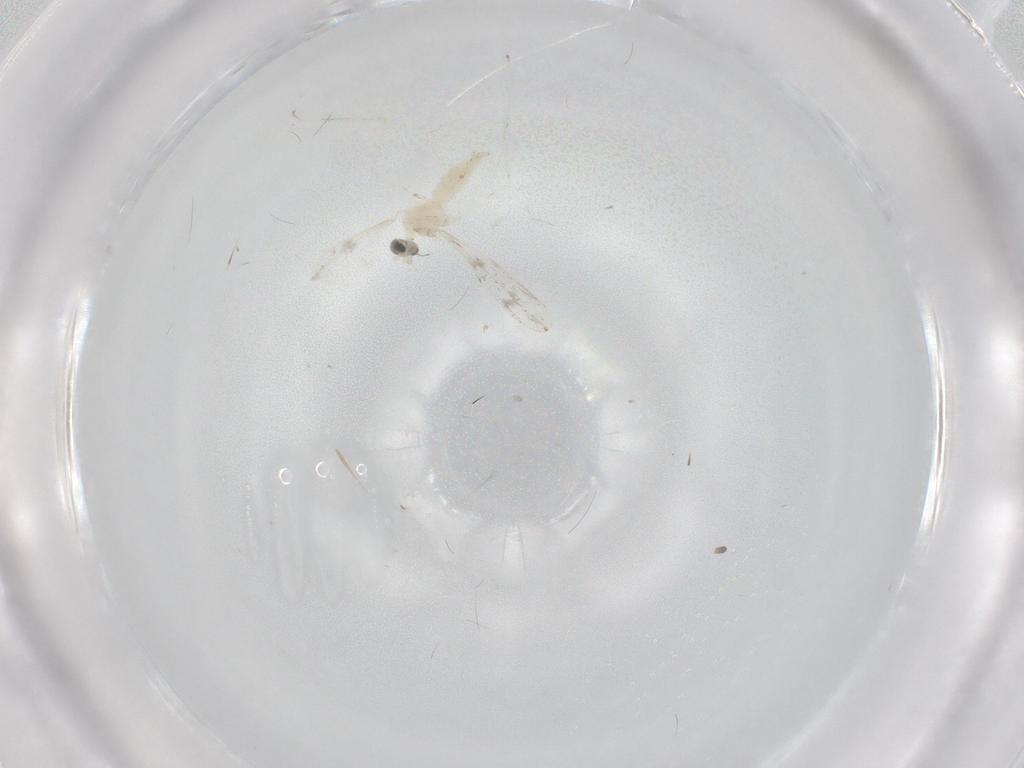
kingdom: Animalia
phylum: Arthropoda
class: Insecta
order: Diptera
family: Cecidomyiidae
